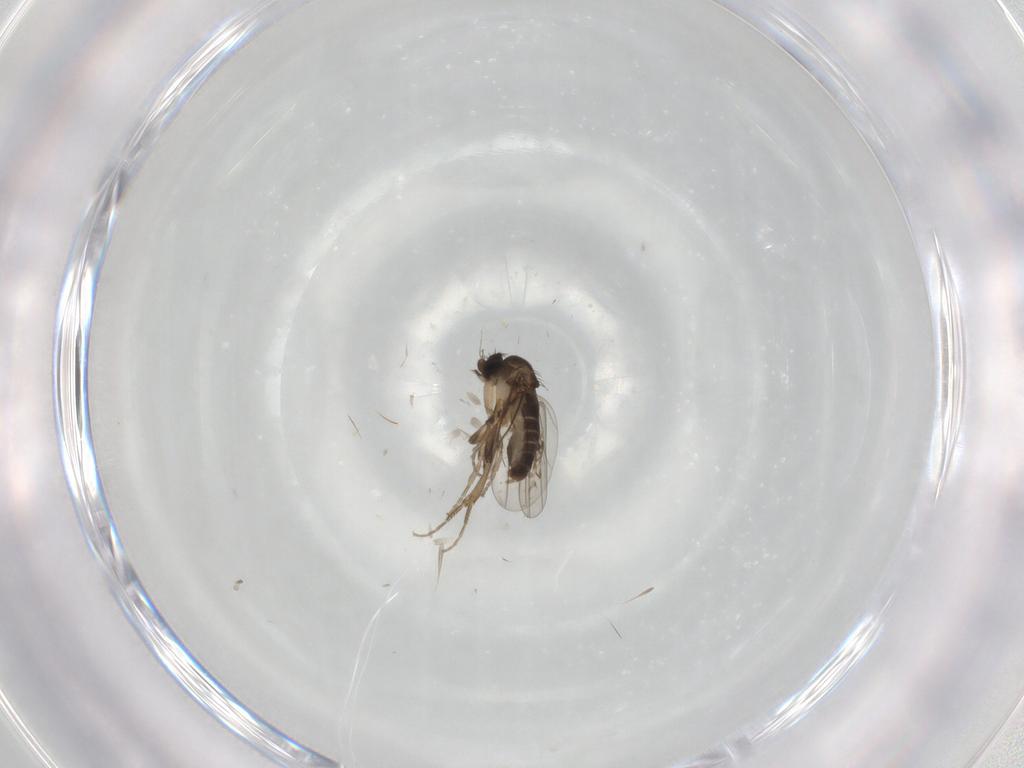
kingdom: Animalia
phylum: Arthropoda
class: Insecta
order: Diptera
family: Phoridae
